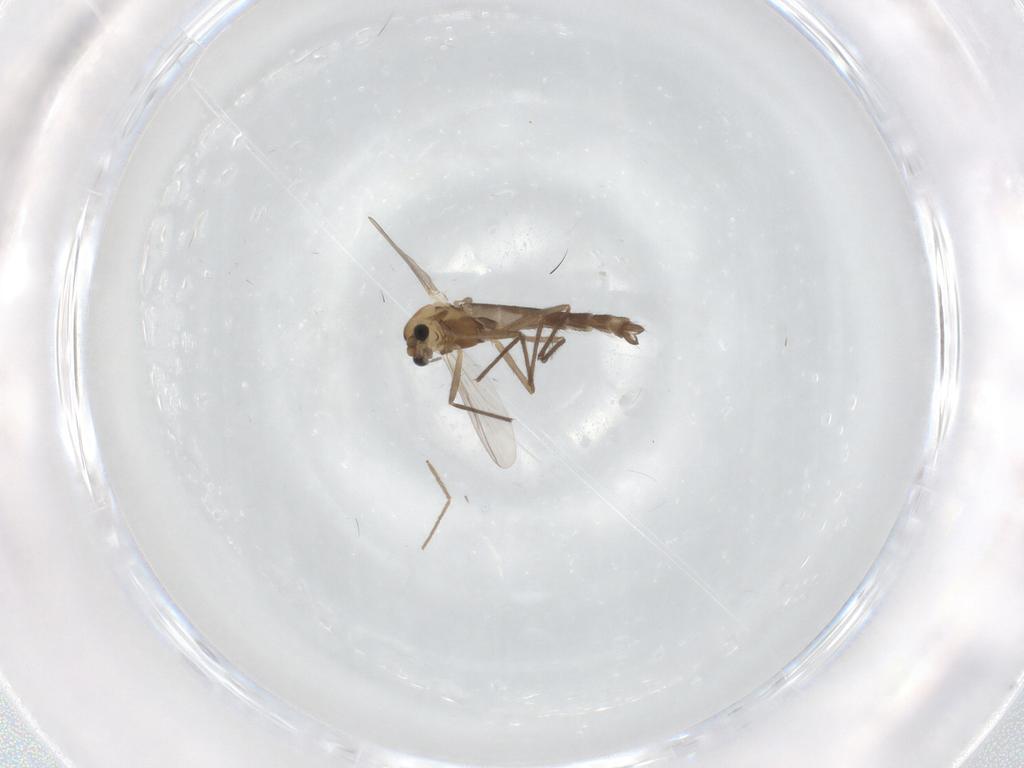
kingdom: Animalia
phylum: Arthropoda
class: Insecta
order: Diptera
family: Chironomidae
